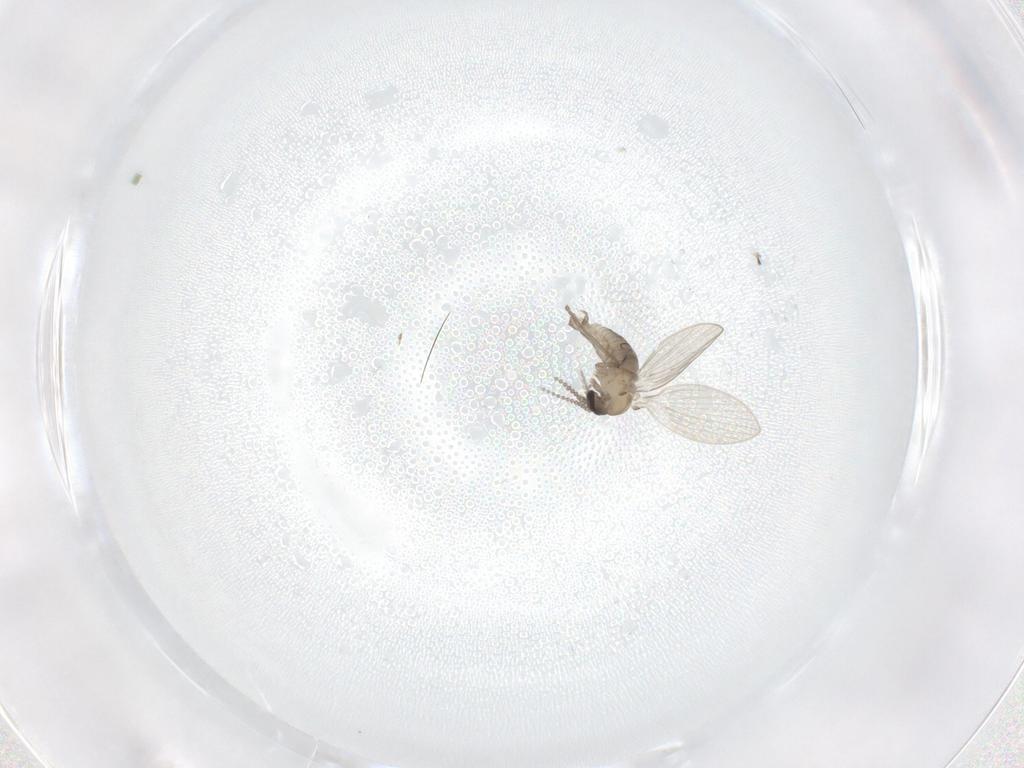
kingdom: Animalia
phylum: Arthropoda
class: Insecta
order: Diptera
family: Psychodidae
